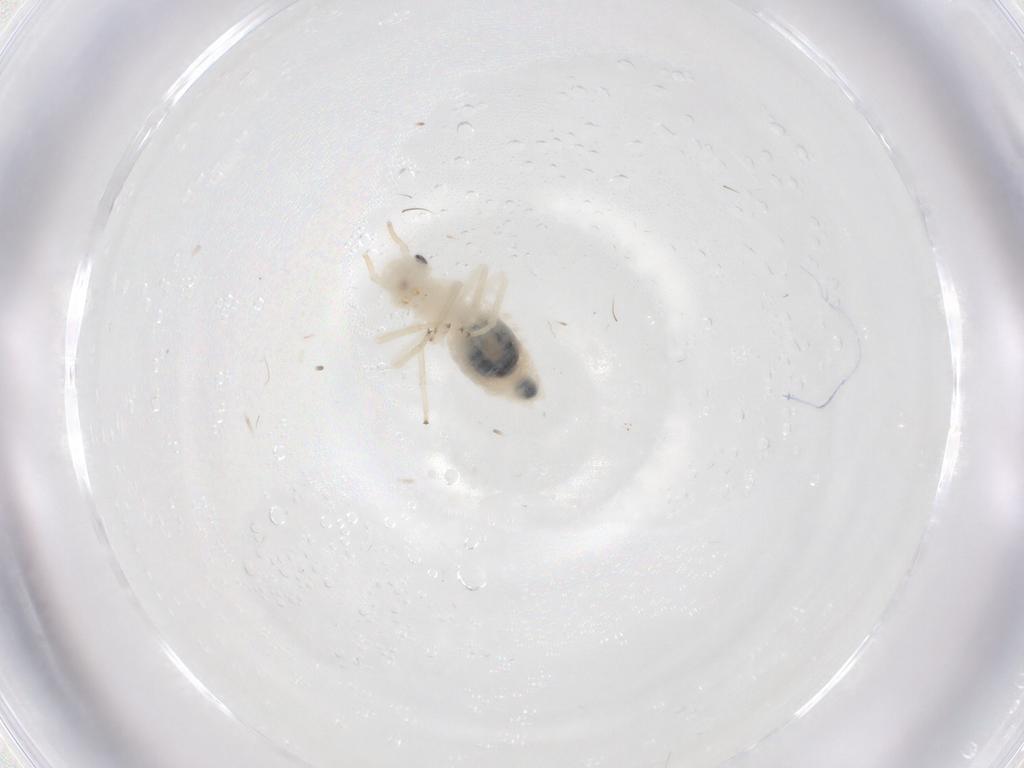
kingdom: Animalia
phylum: Arthropoda
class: Insecta
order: Psocodea
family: Philotarsidae
